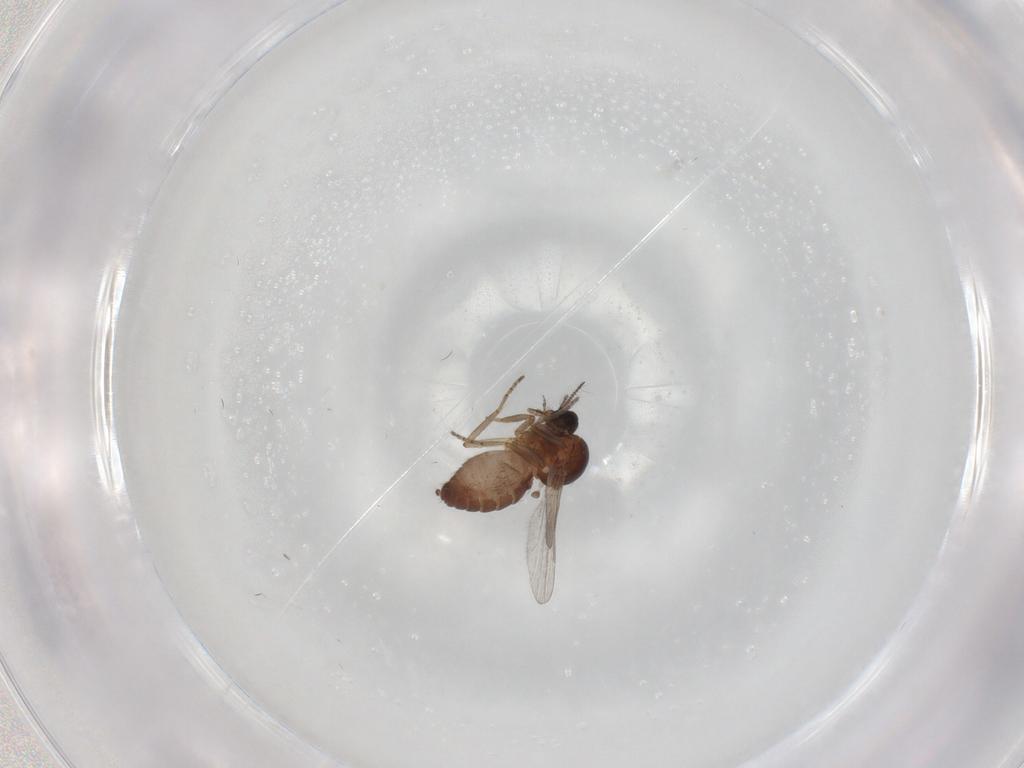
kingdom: Animalia
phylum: Arthropoda
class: Insecta
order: Diptera
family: Ceratopogonidae
